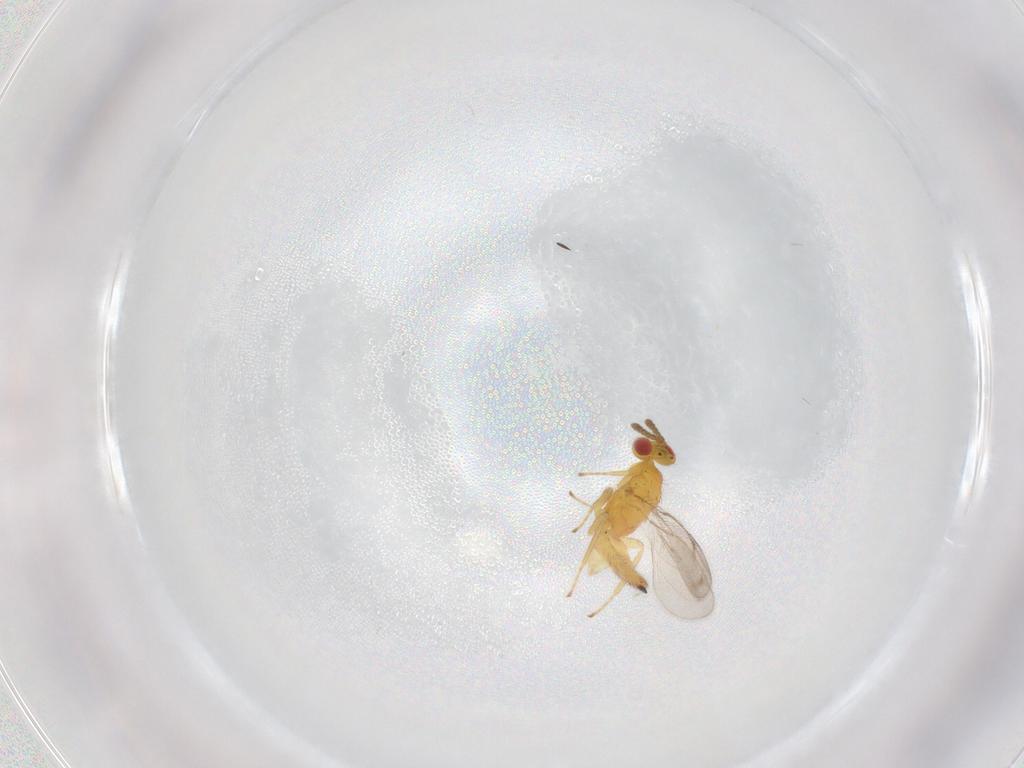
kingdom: Animalia
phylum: Arthropoda
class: Insecta
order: Hymenoptera
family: Eulophidae
